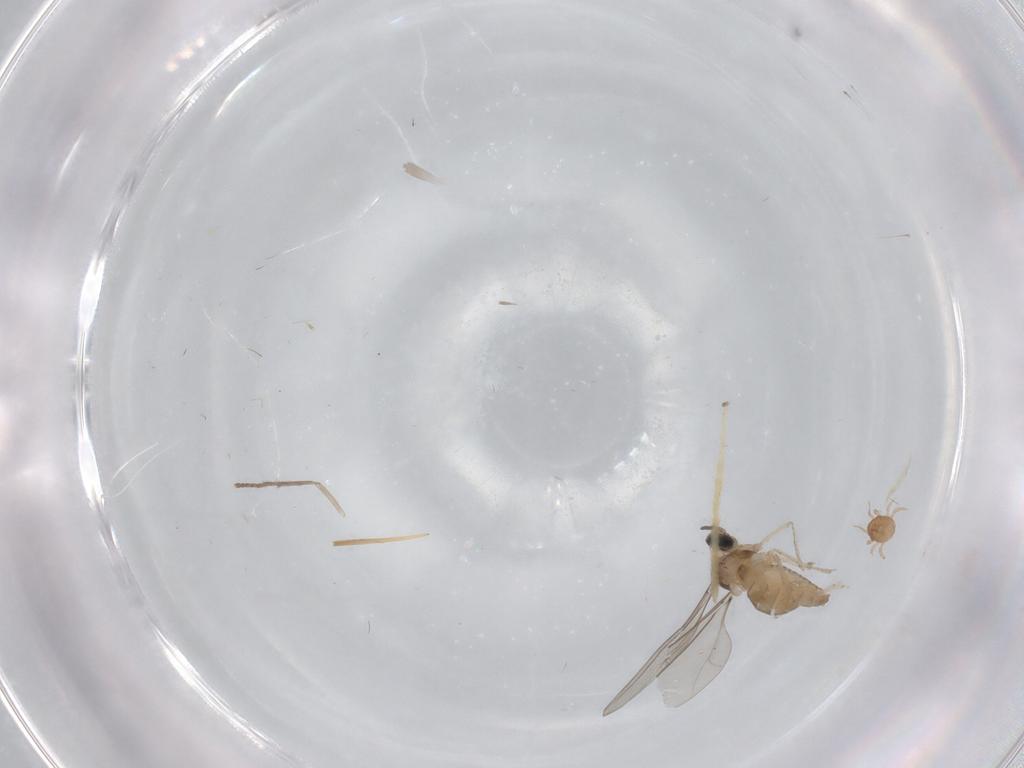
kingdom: Animalia
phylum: Arthropoda
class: Insecta
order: Diptera
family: Psychodidae
